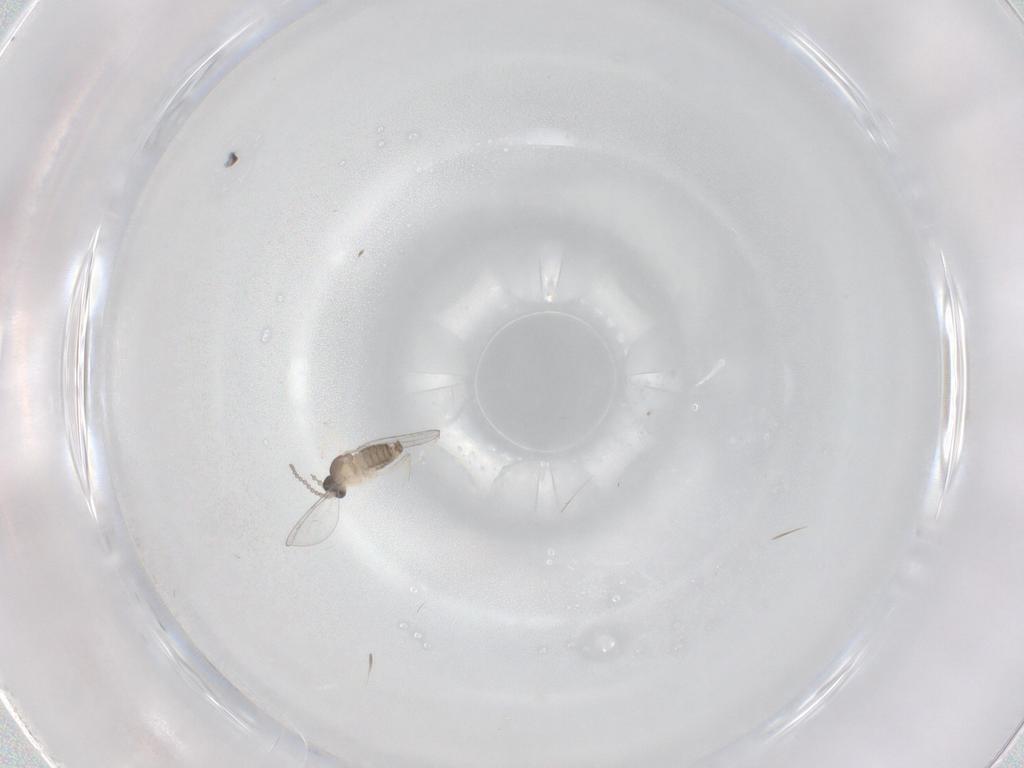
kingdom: Animalia
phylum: Arthropoda
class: Insecta
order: Diptera
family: Cecidomyiidae
